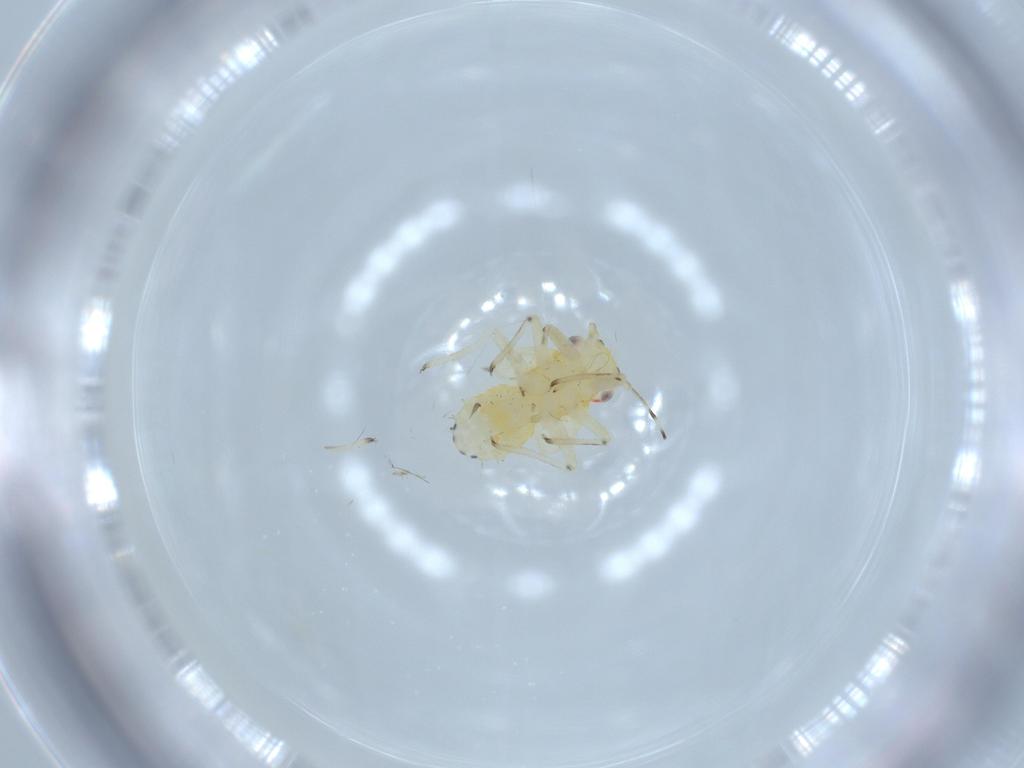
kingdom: Animalia
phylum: Arthropoda
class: Insecta
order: Hemiptera
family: Psyllidae
